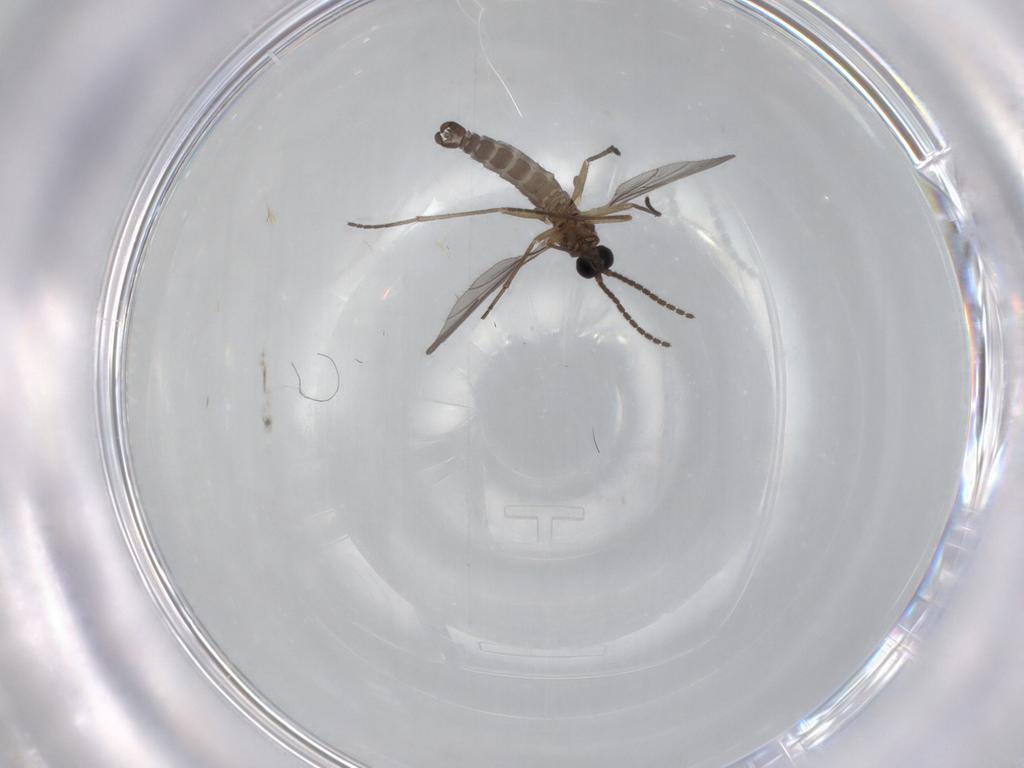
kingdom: Animalia
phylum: Arthropoda
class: Insecta
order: Diptera
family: Sciaridae
